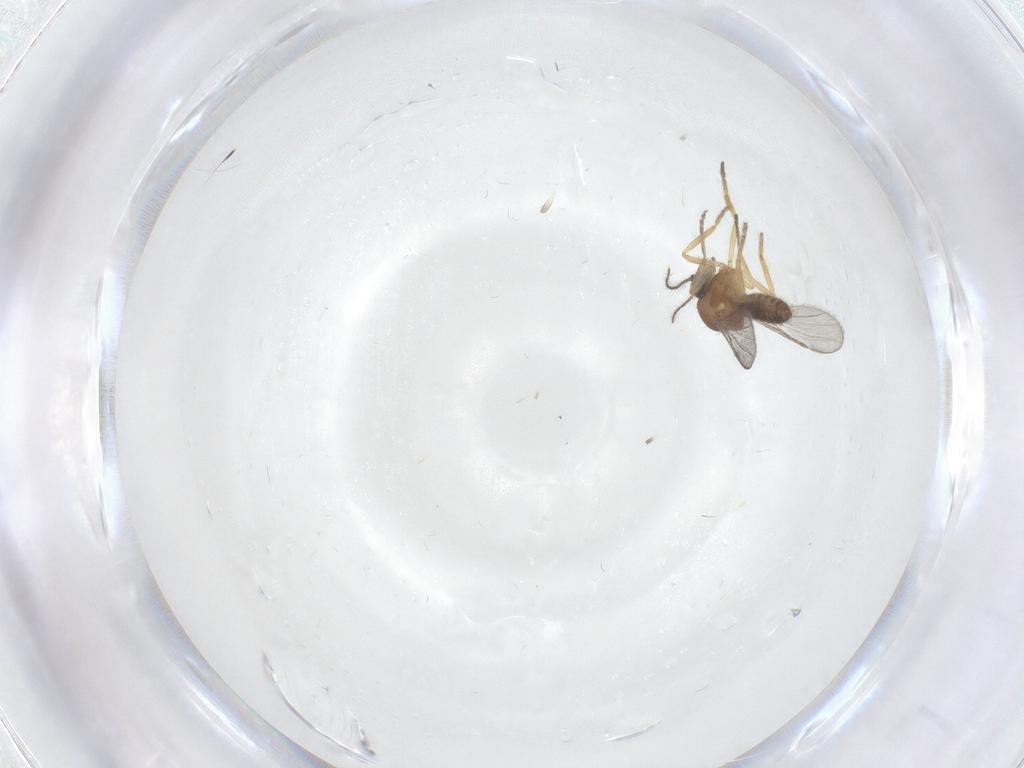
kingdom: Animalia
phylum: Arthropoda
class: Insecta
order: Diptera
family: Ceratopogonidae
